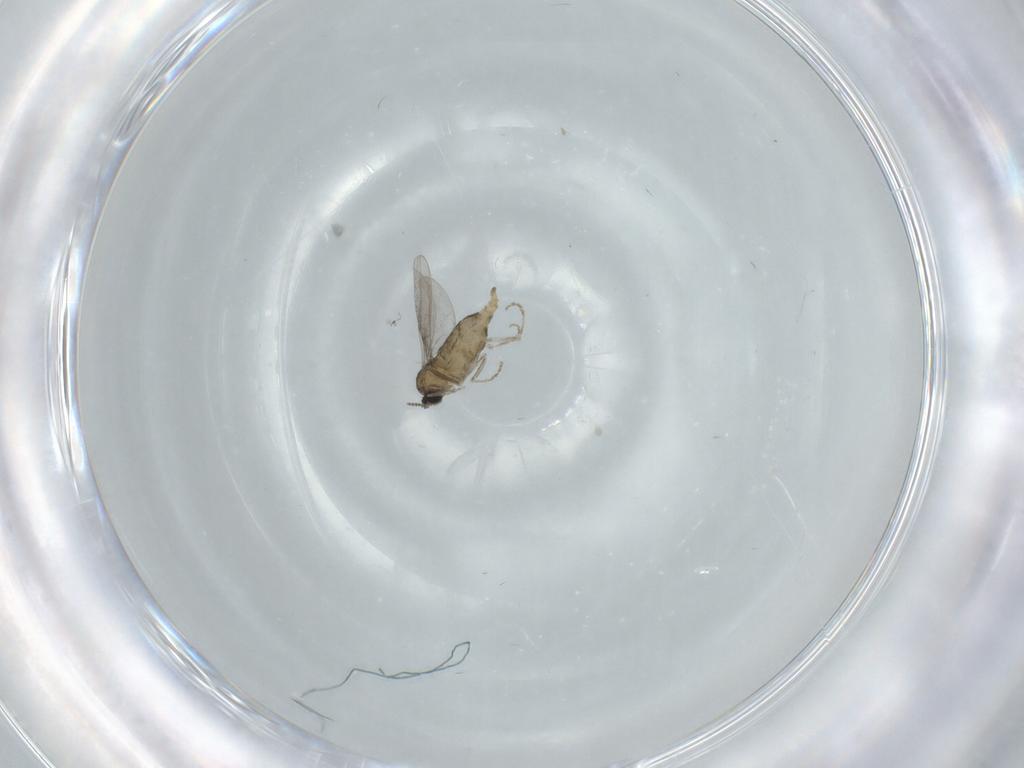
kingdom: Animalia
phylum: Arthropoda
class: Insecta
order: Diptera
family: Cecidomyiidae
